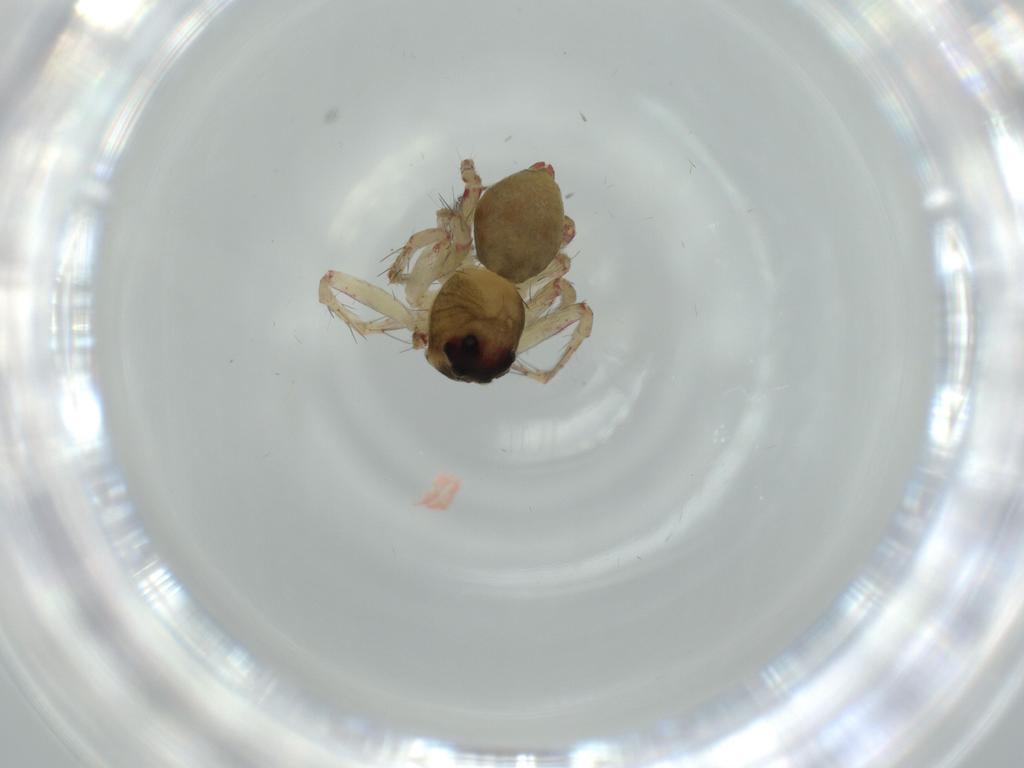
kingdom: Animalia
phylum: Arthropoda
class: Arachnida
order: Araneae
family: Oxyopidae
